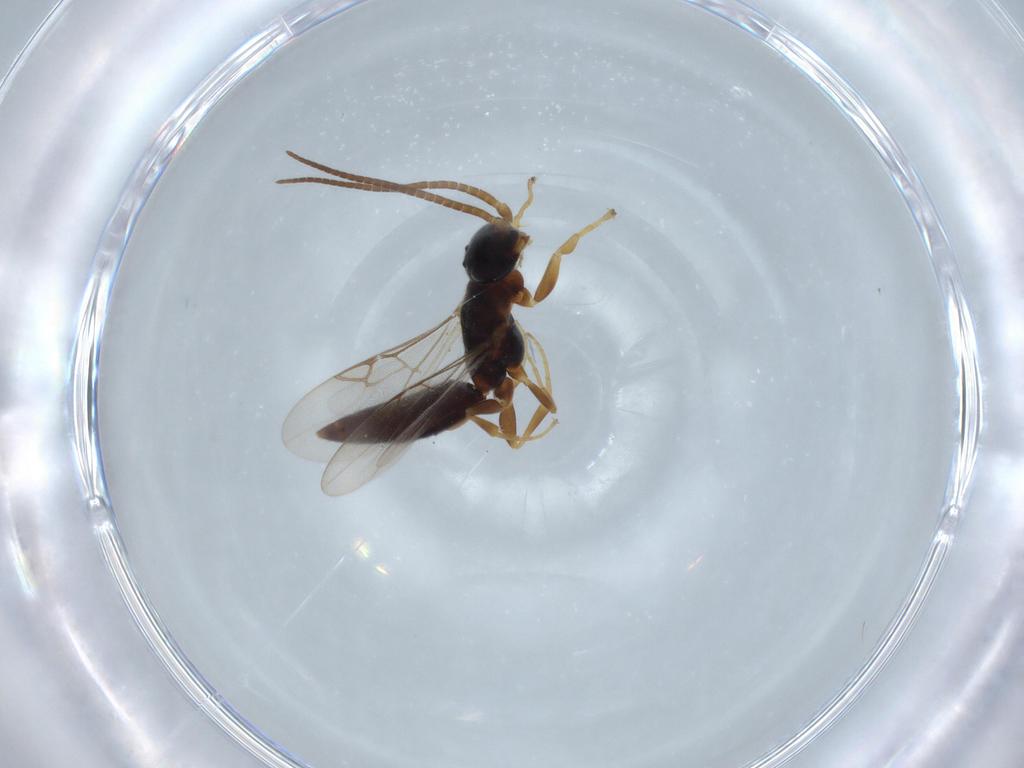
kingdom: Animalia
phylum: Arthropoda
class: Insecta
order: Hymenoptera
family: Sclerogibbidae
